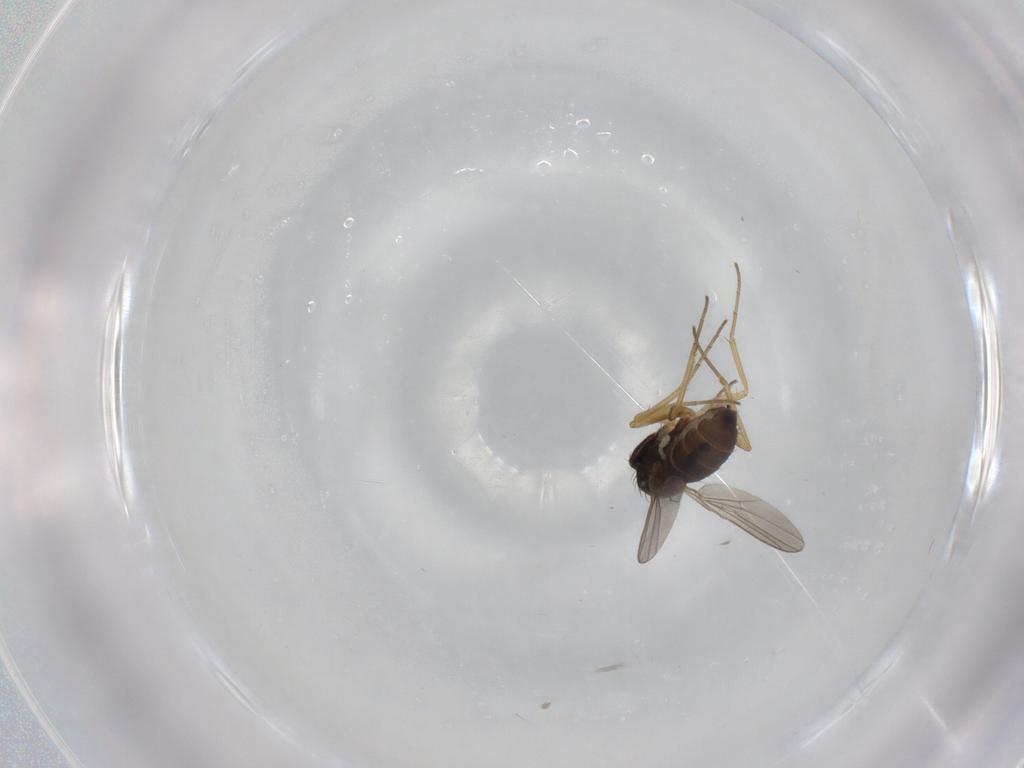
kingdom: Animalia
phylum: Arthropoda
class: Insecta
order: Diptera
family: Dolichopodidae
